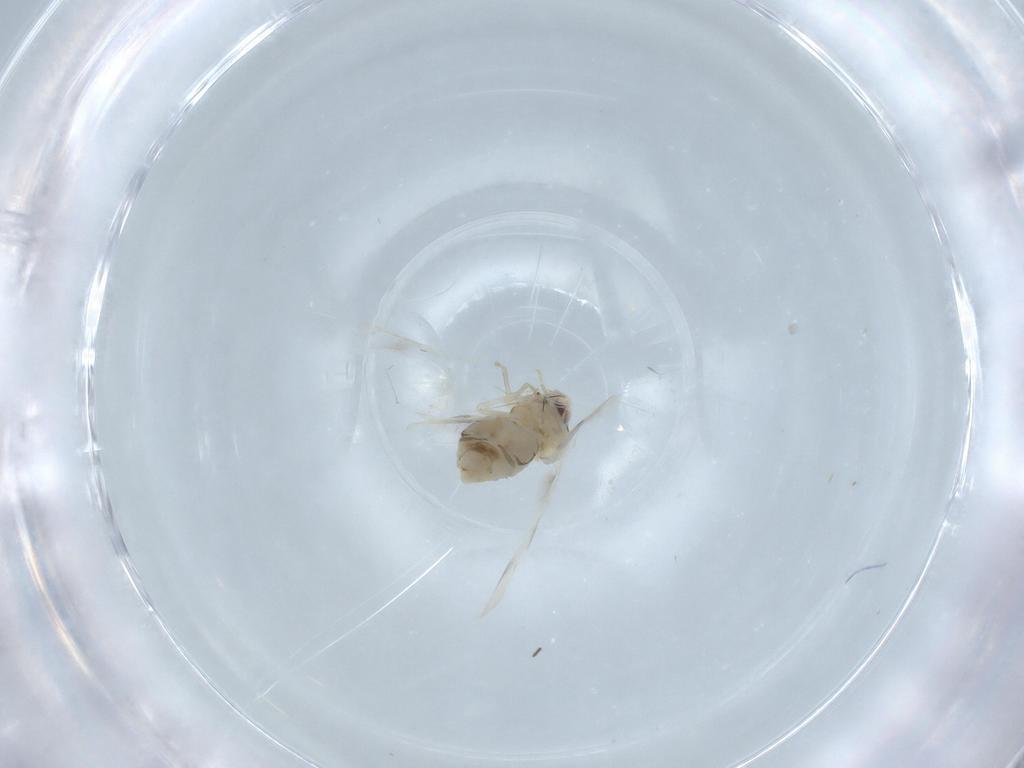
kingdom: Animalia
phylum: Arthropoda
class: Insecta
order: Hemiptera
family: Aleyrodidae
